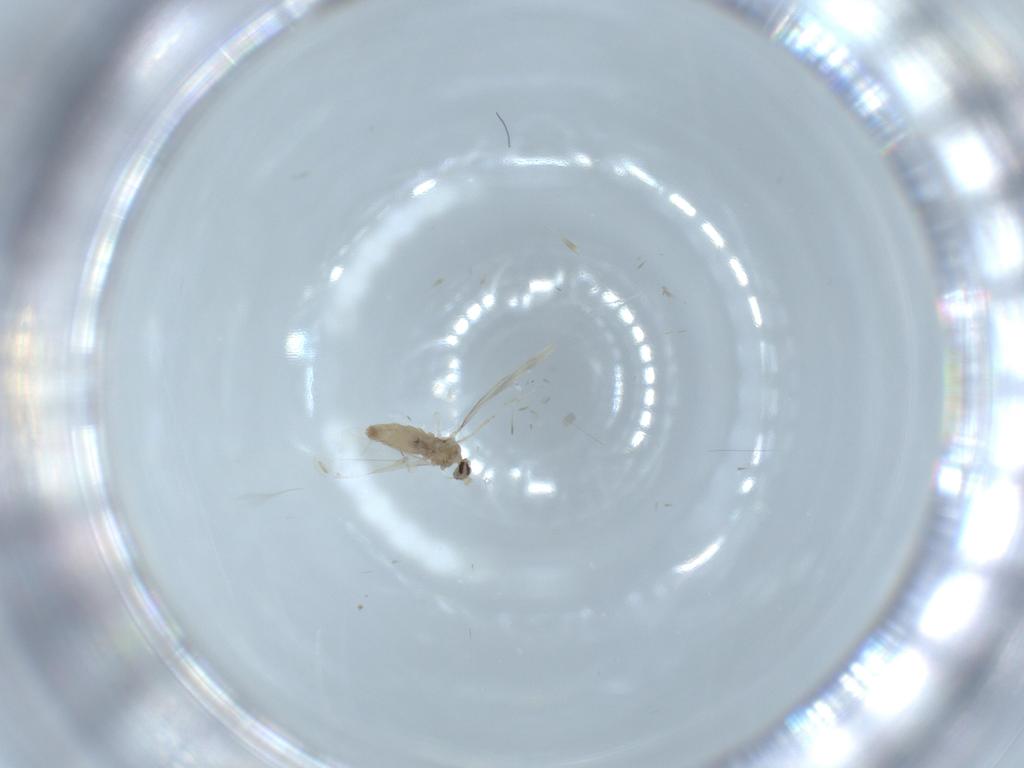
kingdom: Animalia
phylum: Arthropoda
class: Insecta
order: Diptera
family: Cecidomyiidae
